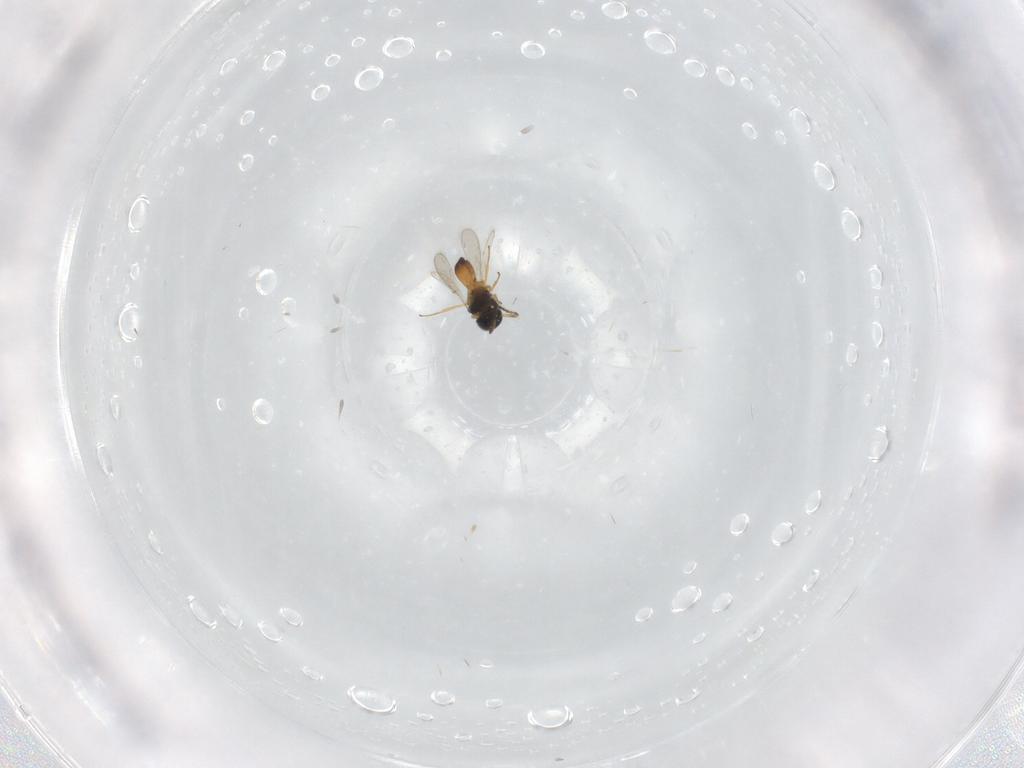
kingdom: Animalia
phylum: Arthropoda
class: Insecta
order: Hymenoptera
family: Scelionidae
